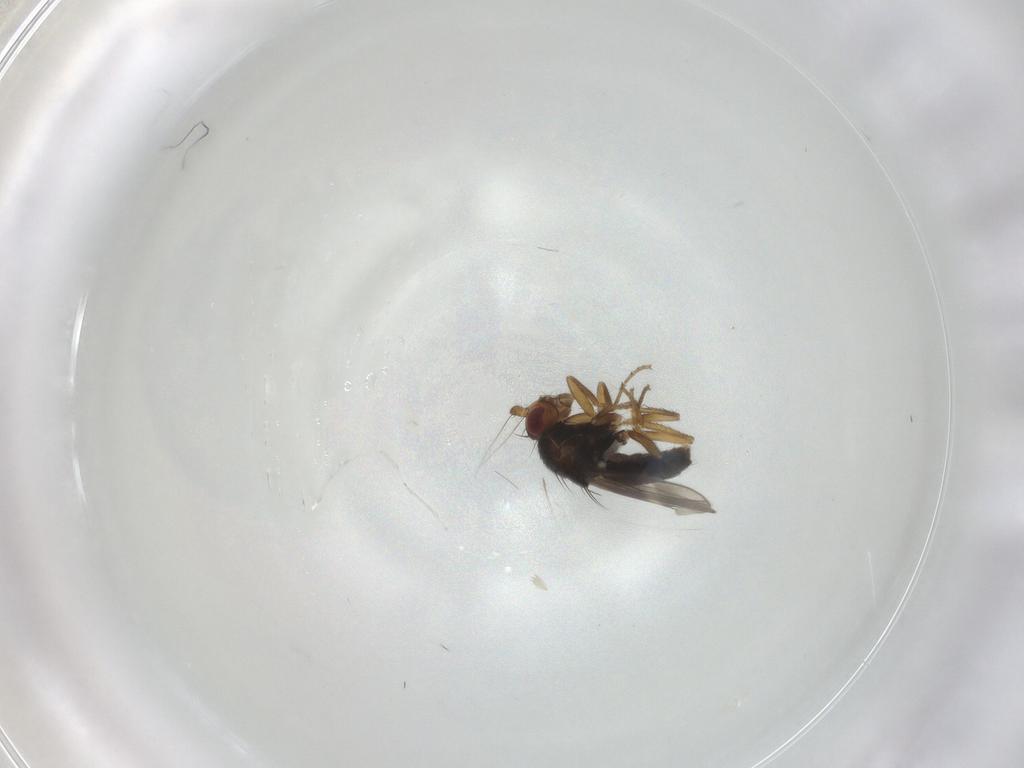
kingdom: Animalia
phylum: Arthropoda
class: Insecta
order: Diptera
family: Sphaeroceridae
